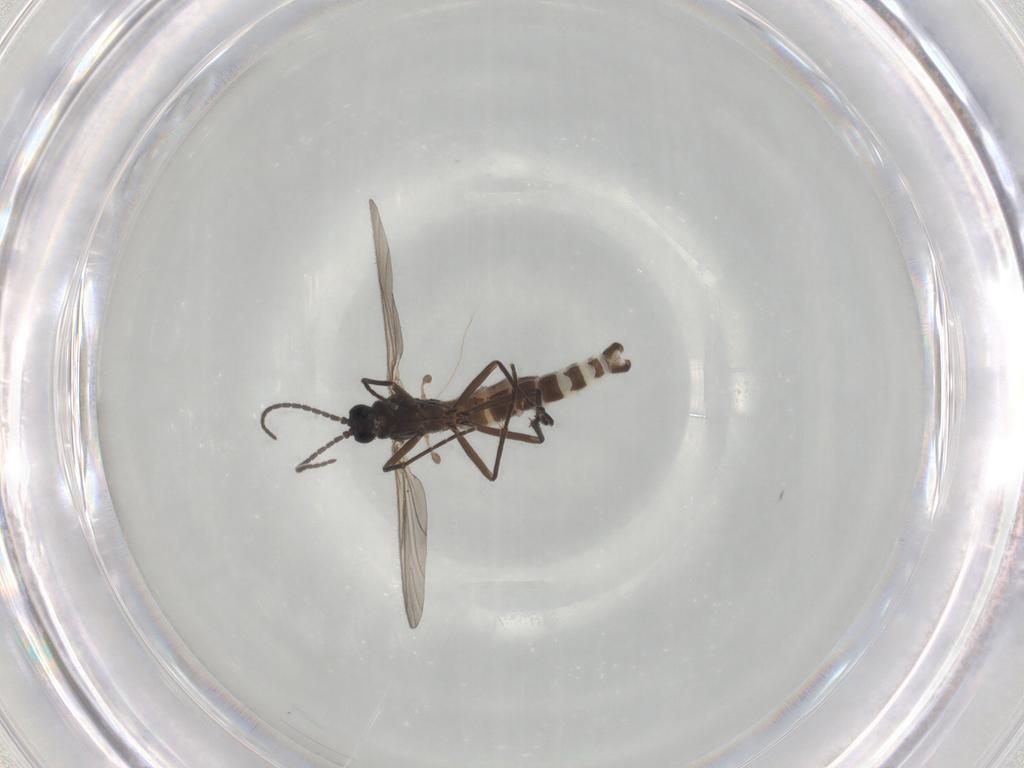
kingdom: Animalia
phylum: Arthropoda
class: Insecta
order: Diptera
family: Sciaridae
